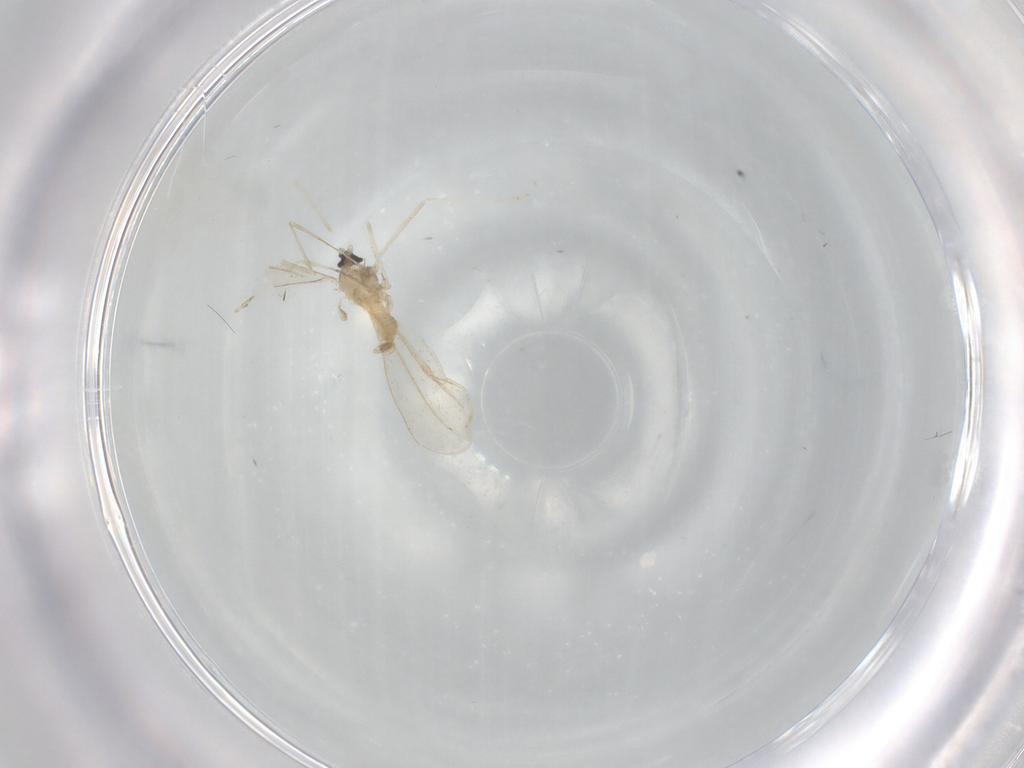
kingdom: Animalia
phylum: Arthropoda
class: Insecta
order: Diptera
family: Cecidomyiidae
